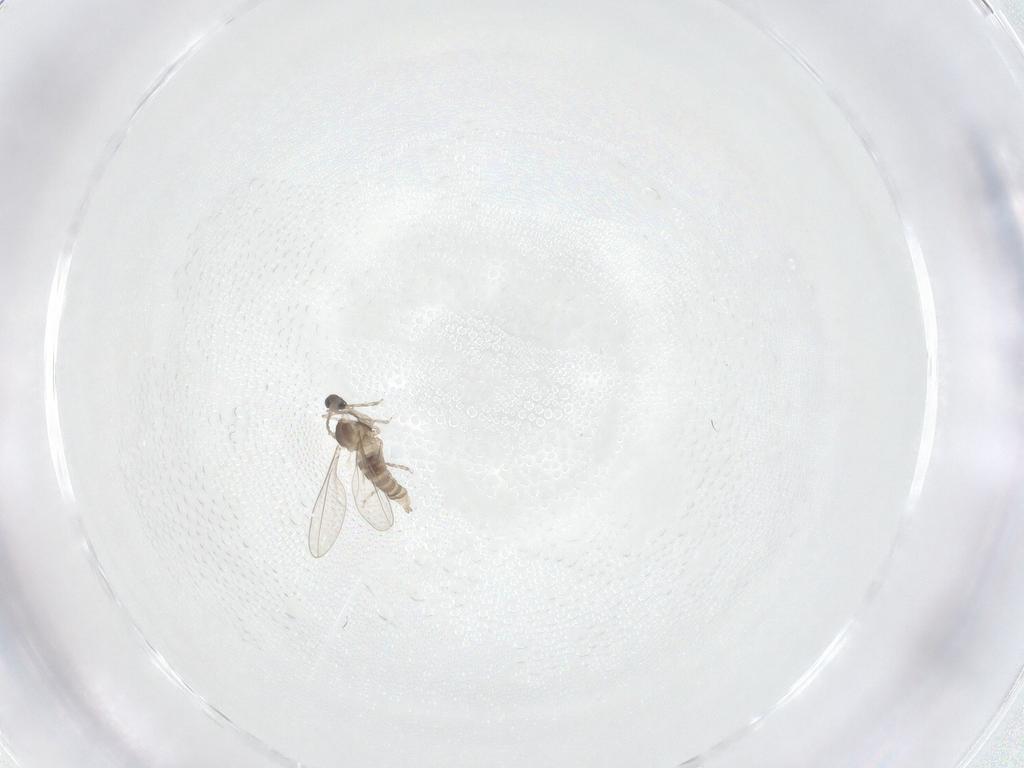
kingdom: Animalia
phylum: Arthropoda
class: Insecta
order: Diptera
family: Cecidomyiidae
